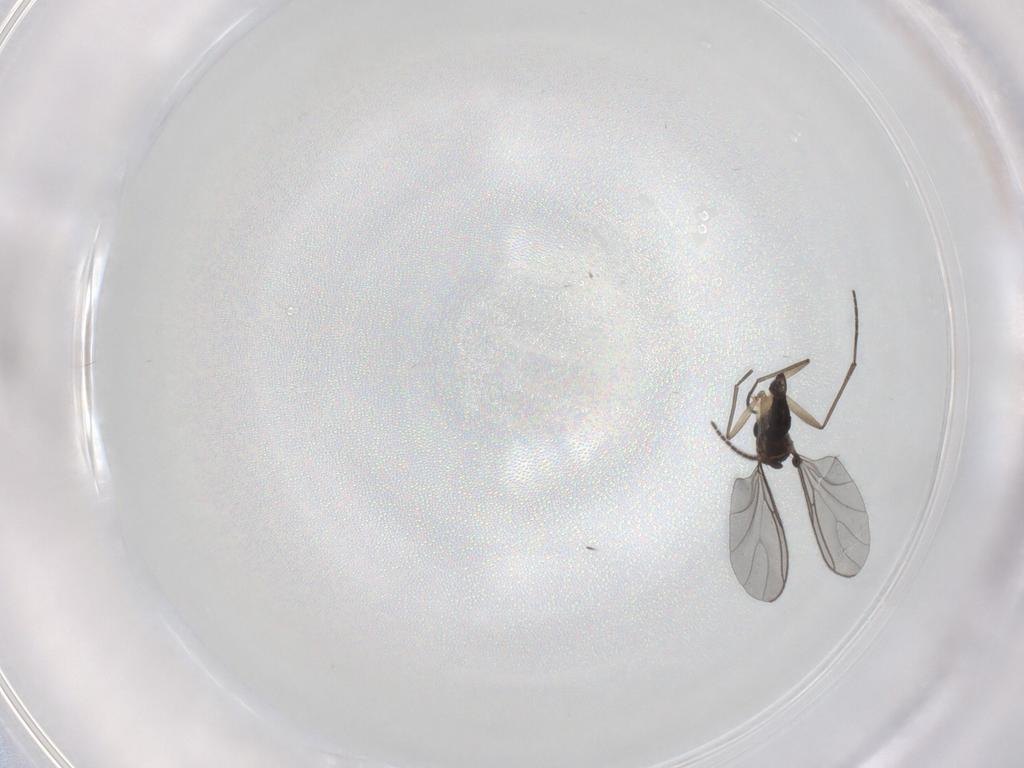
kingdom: Animalia
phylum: Arthropoda
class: Insecta
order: Diptera
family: Sciaridae
